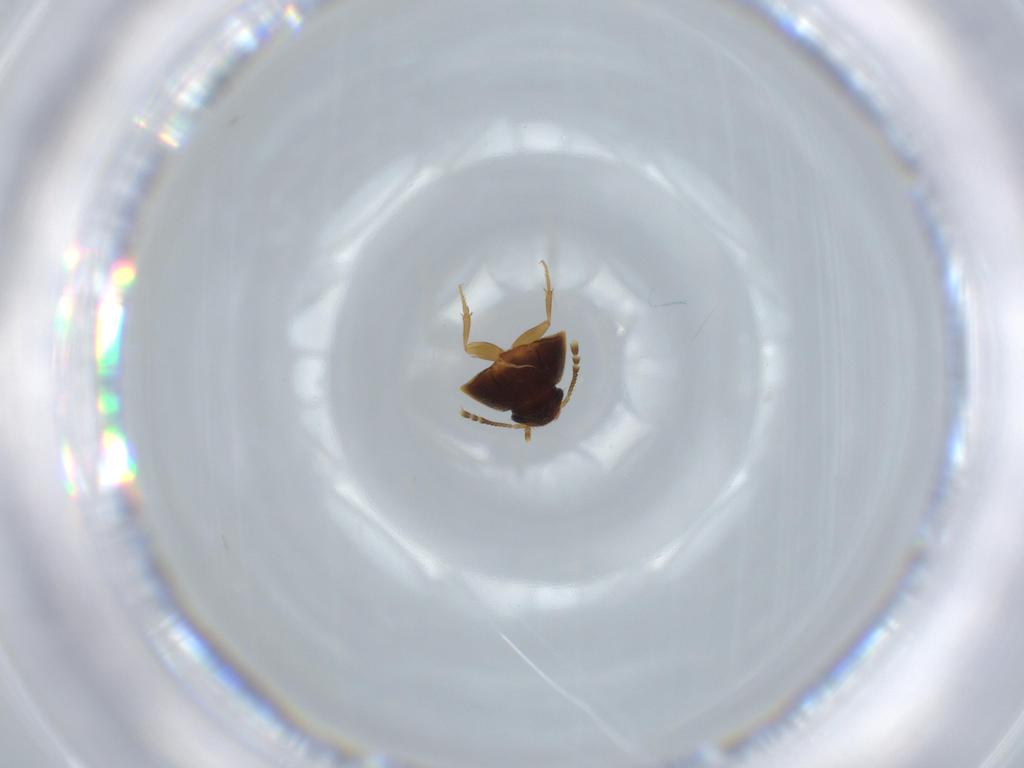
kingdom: Animalia
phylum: Arthropoda
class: Insecta
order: Coleoptera
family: Mycetophagidae
